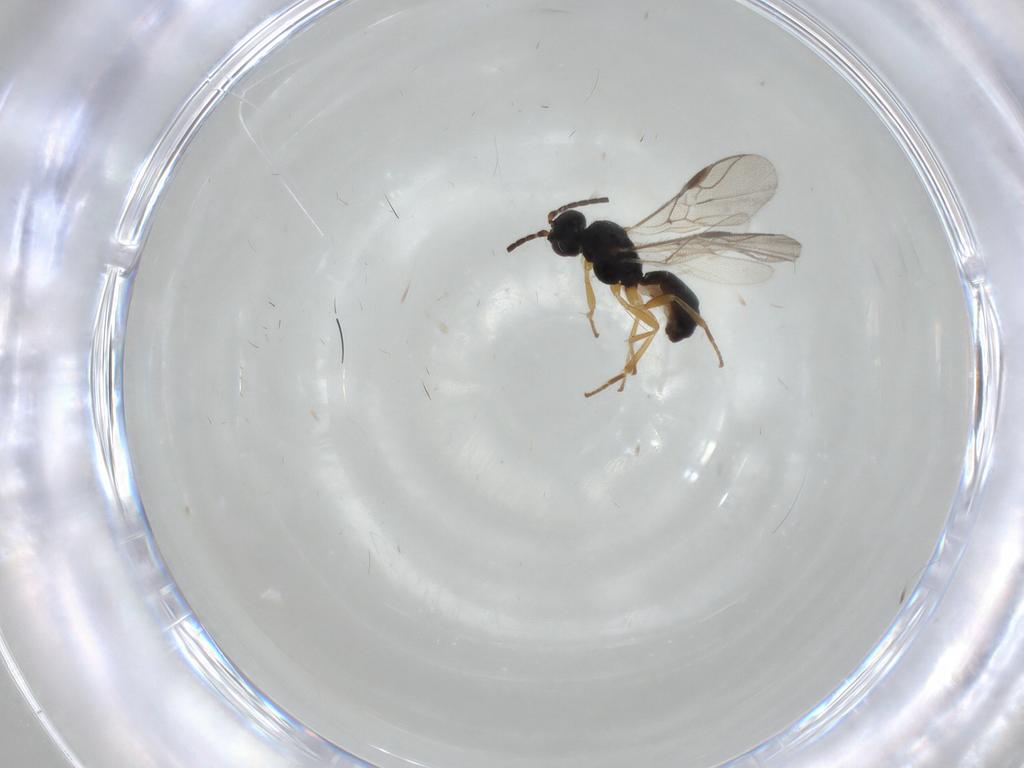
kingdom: Animalia
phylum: Arthropoda
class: Insecta
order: Hymenoptera
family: Braconidae
